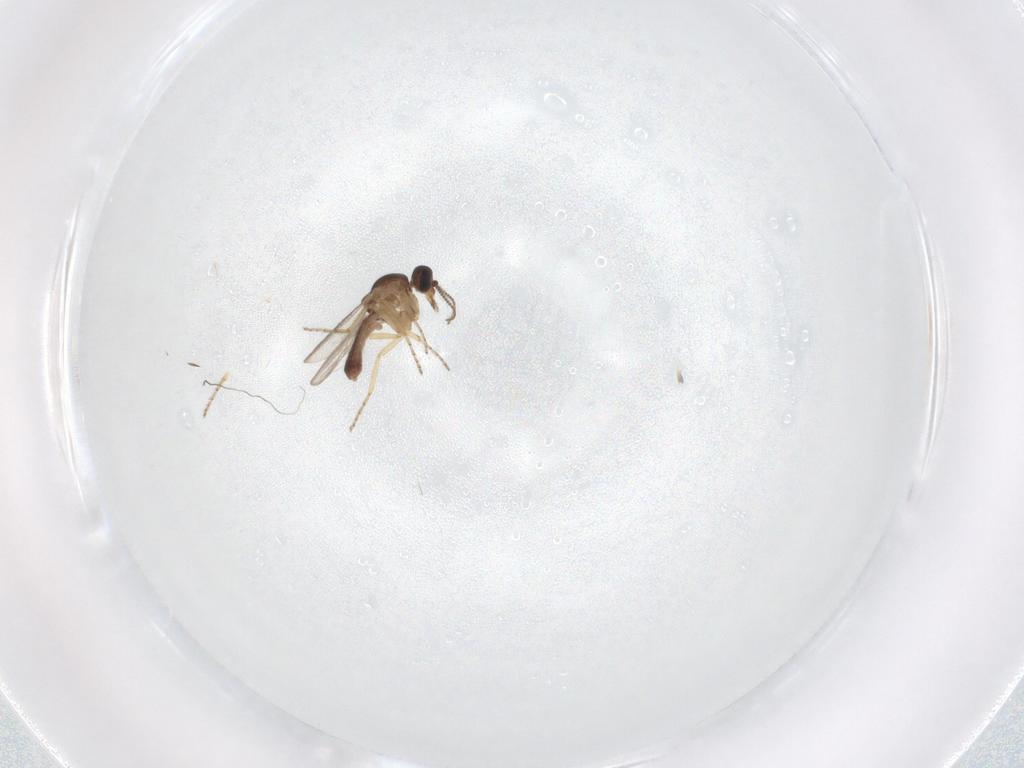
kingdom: Animalia
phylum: Arthropoda
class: Insecta
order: Diptera
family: Ceratopogonidae
